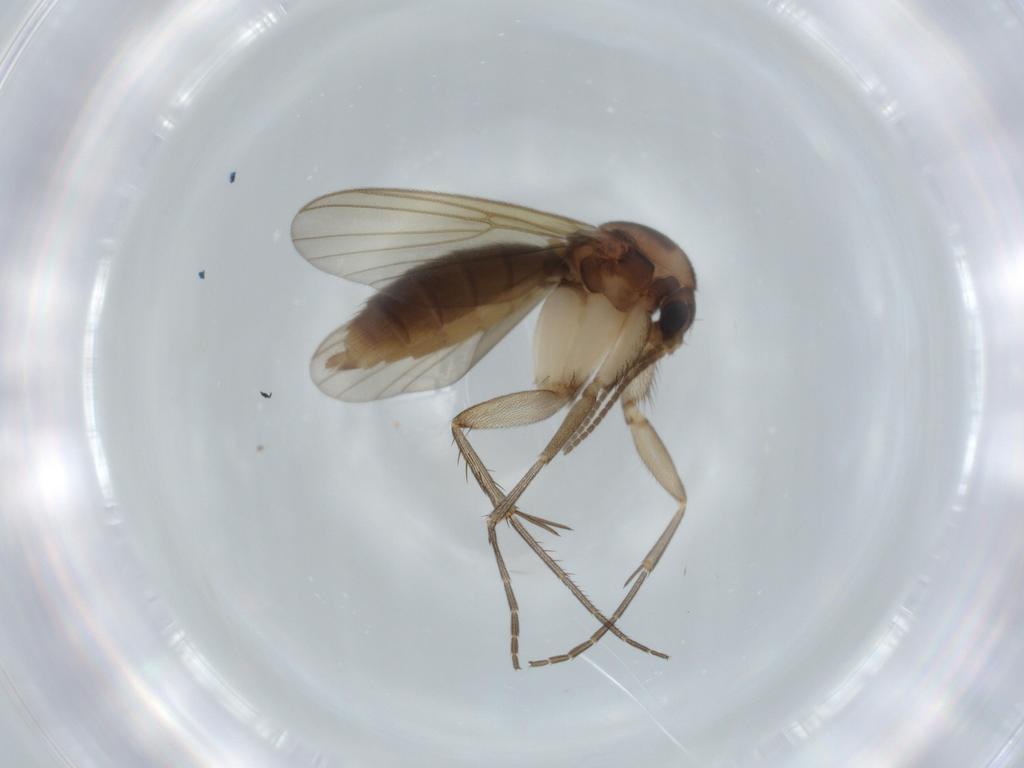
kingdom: Animalia
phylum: Arthropoda
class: Insecta
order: Diptera
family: Mycetophilidae
